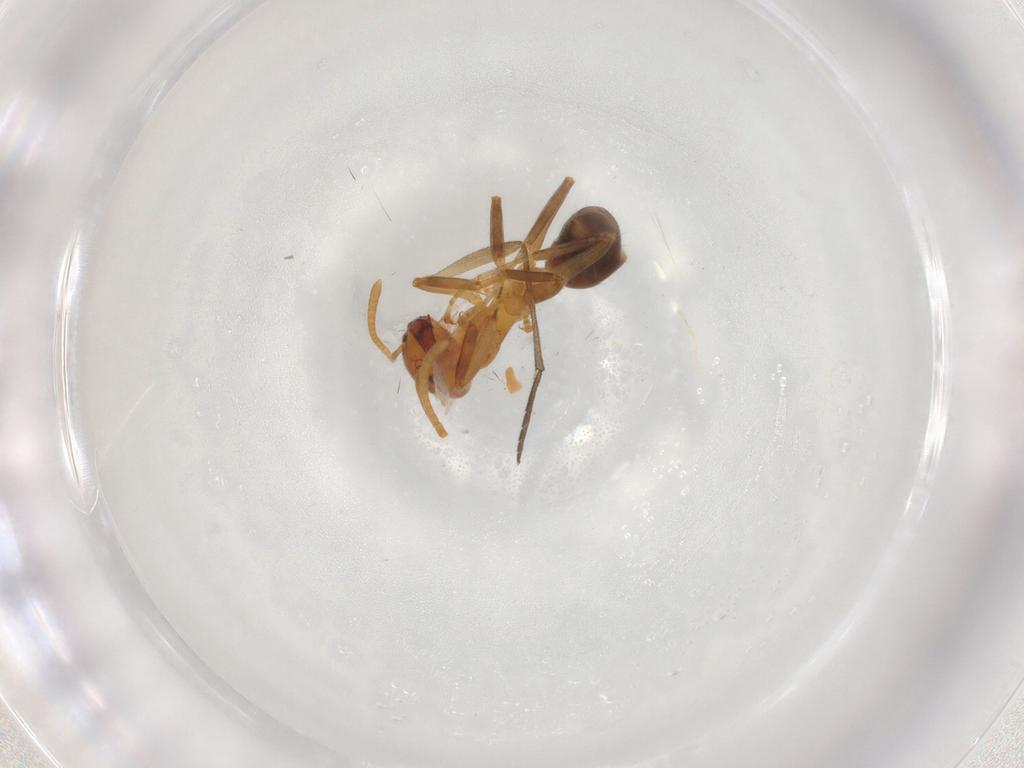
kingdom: Animalia
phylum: Arthropoda
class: Insecta
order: Hymenoptera
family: Formicidae
